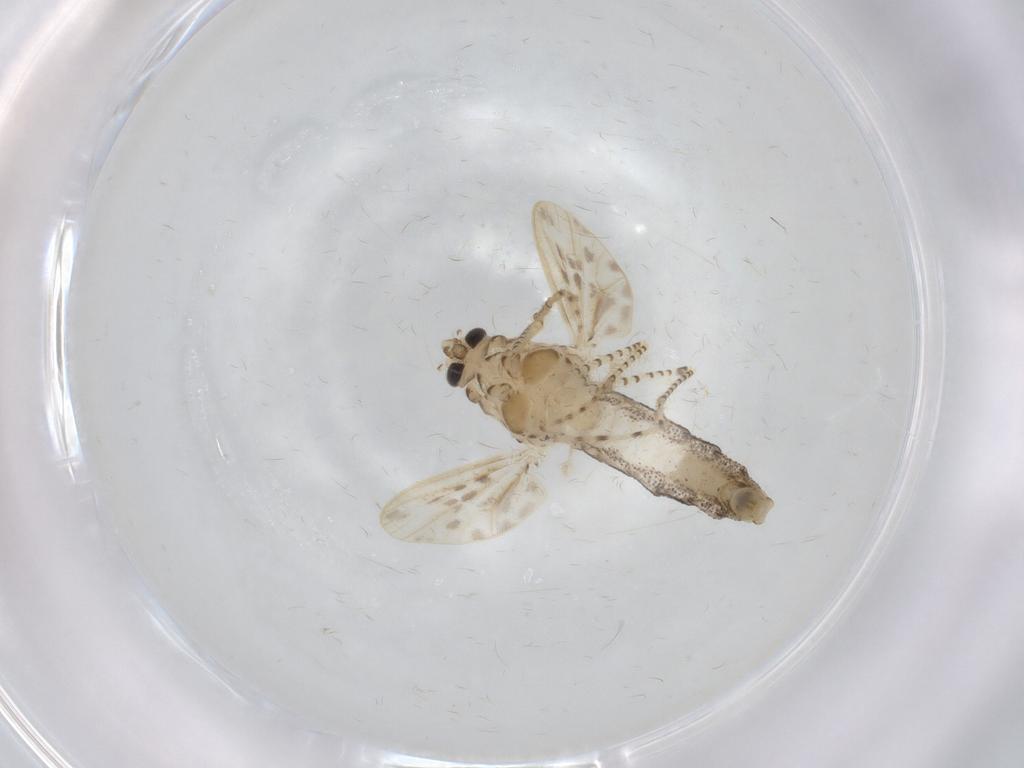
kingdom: Animalia
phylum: Arthropoda
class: Insecta
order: Diptera
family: Chaoboridae
